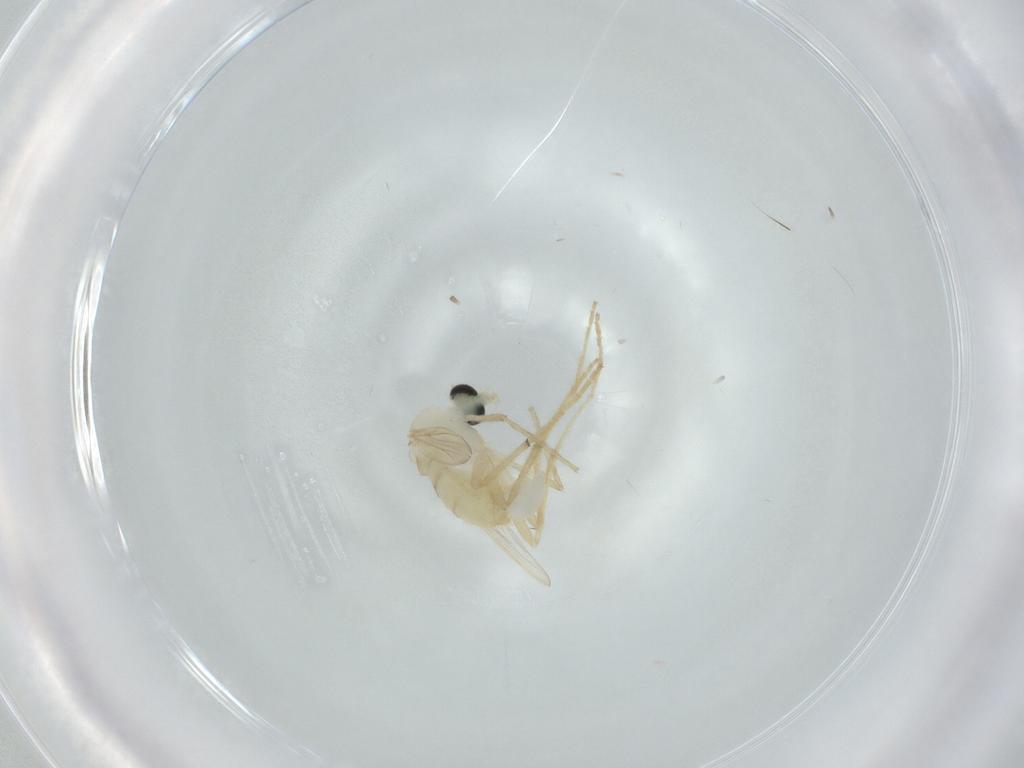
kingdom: Animalia
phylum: Arthropoda
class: Insecta
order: Diptera
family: Chironomidae
